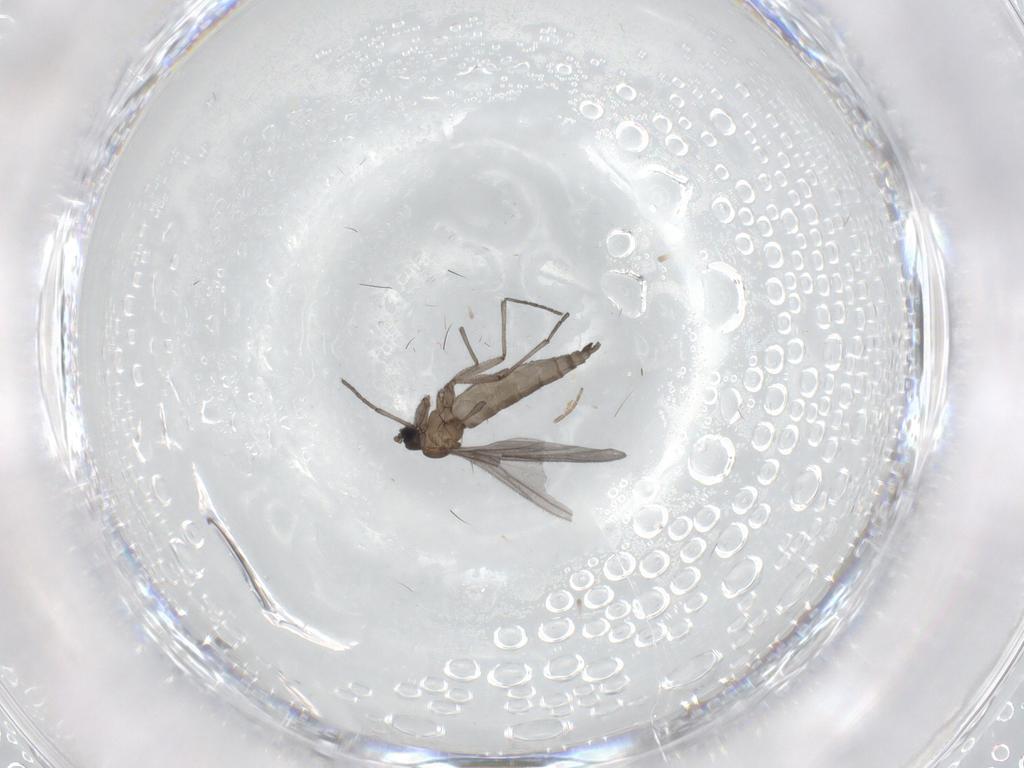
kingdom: Animalia
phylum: Arthropoda
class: Insecta
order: Diptera
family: Sciaridae
